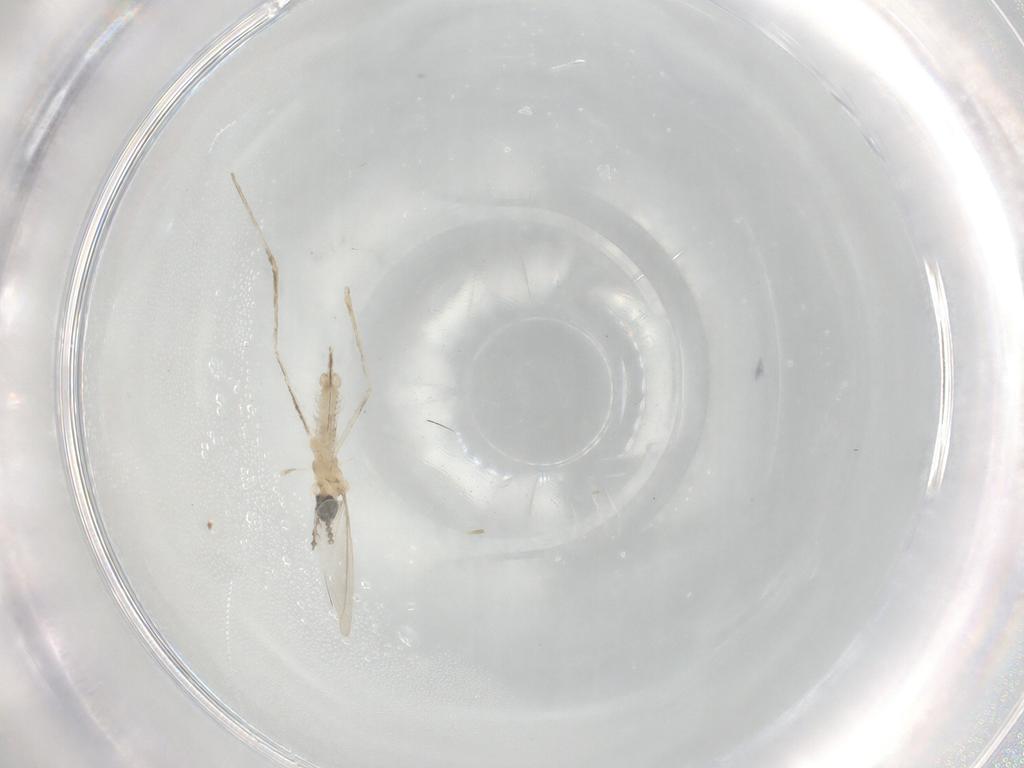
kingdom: Animalia
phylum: Arthropoda
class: Insecta
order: Diptera
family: Cecidomyiidae
